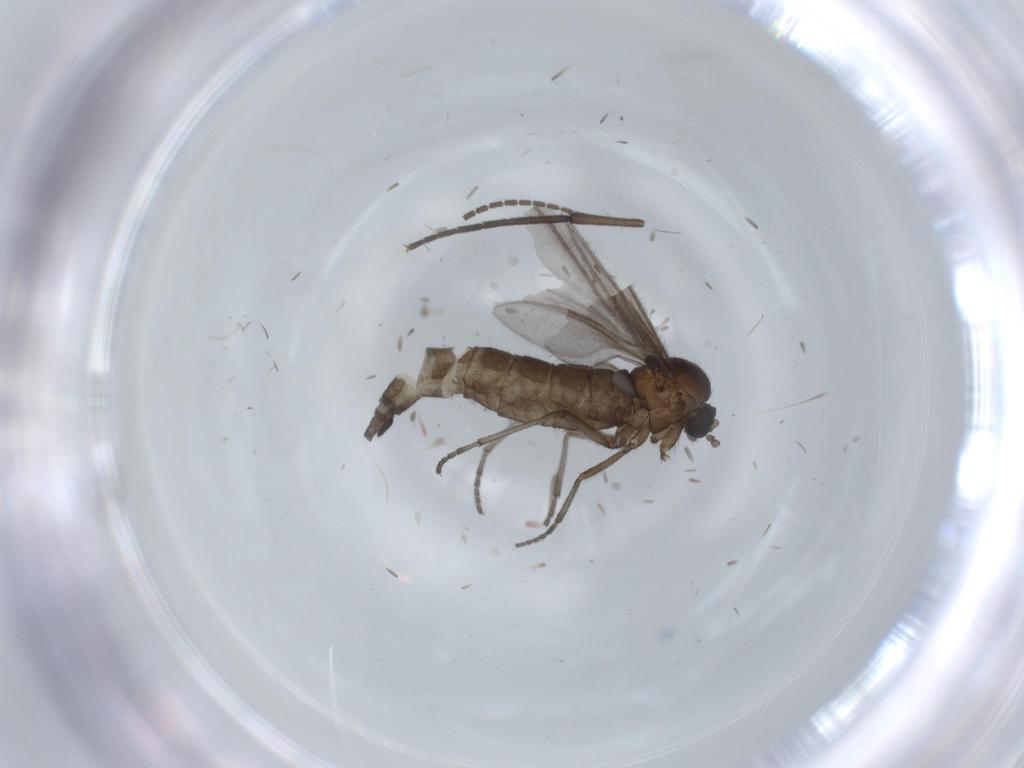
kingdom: Animalia
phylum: Arthropoda
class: Insecta
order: Diptera
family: Sciaridae
